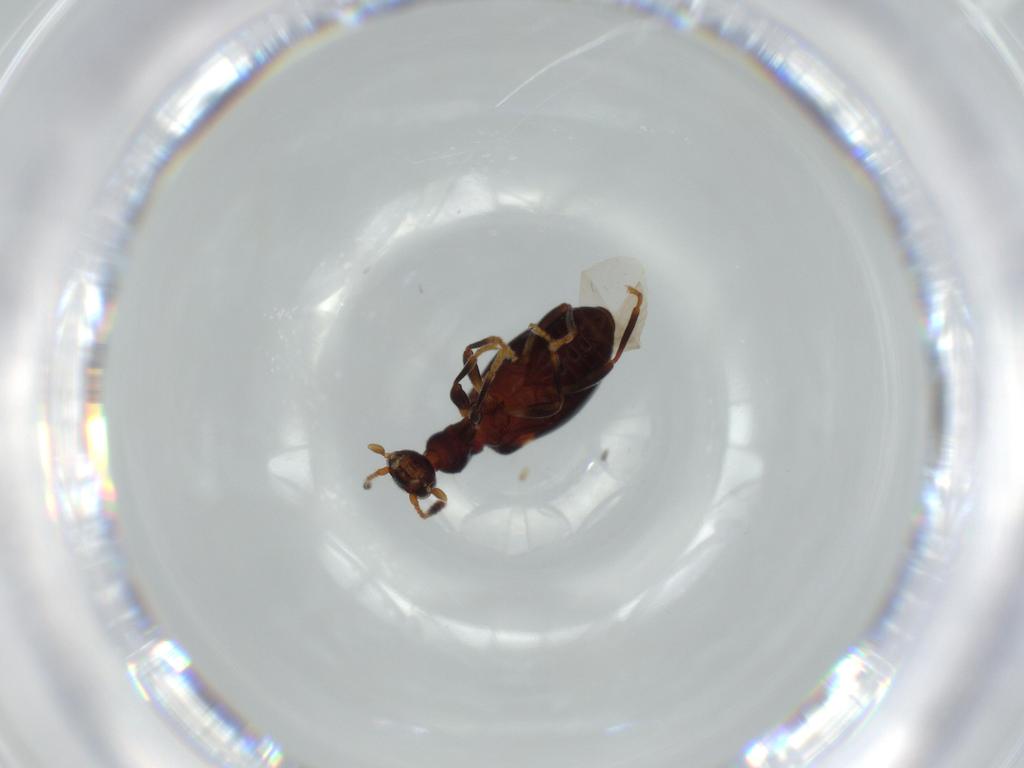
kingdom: Animalia
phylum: Arthropoda
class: Insecta
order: Coleoptera
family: Anthicidae
